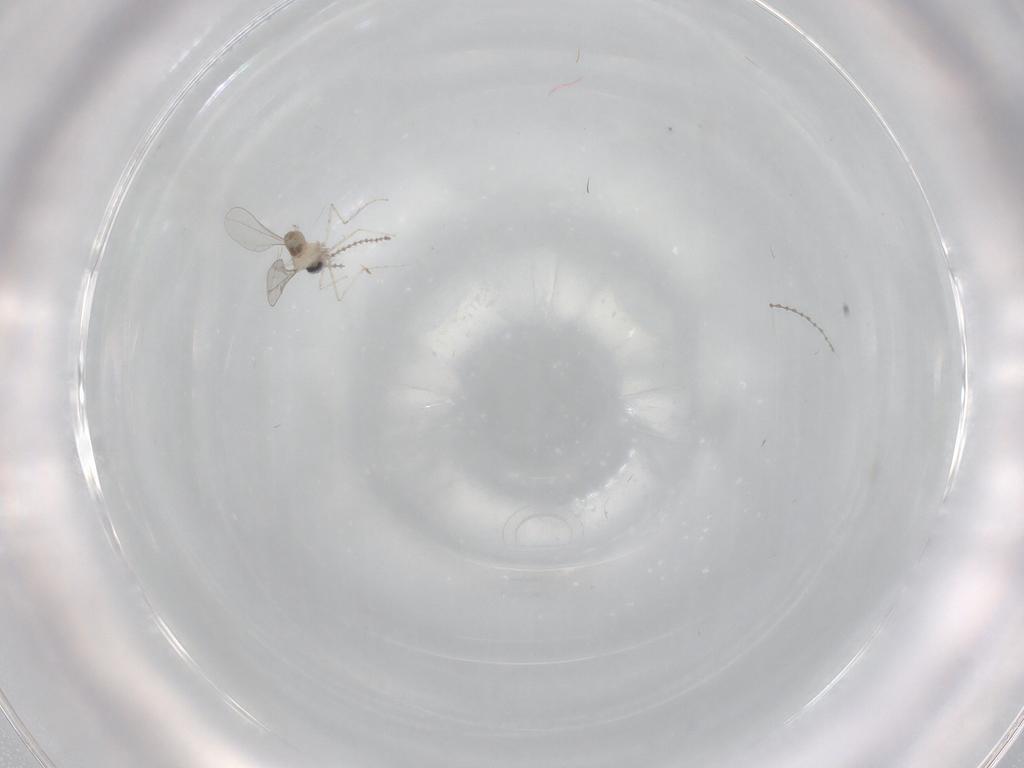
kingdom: Animalia
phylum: Arthropoda
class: Insecta
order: Diptera
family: Cecidomyiidae
